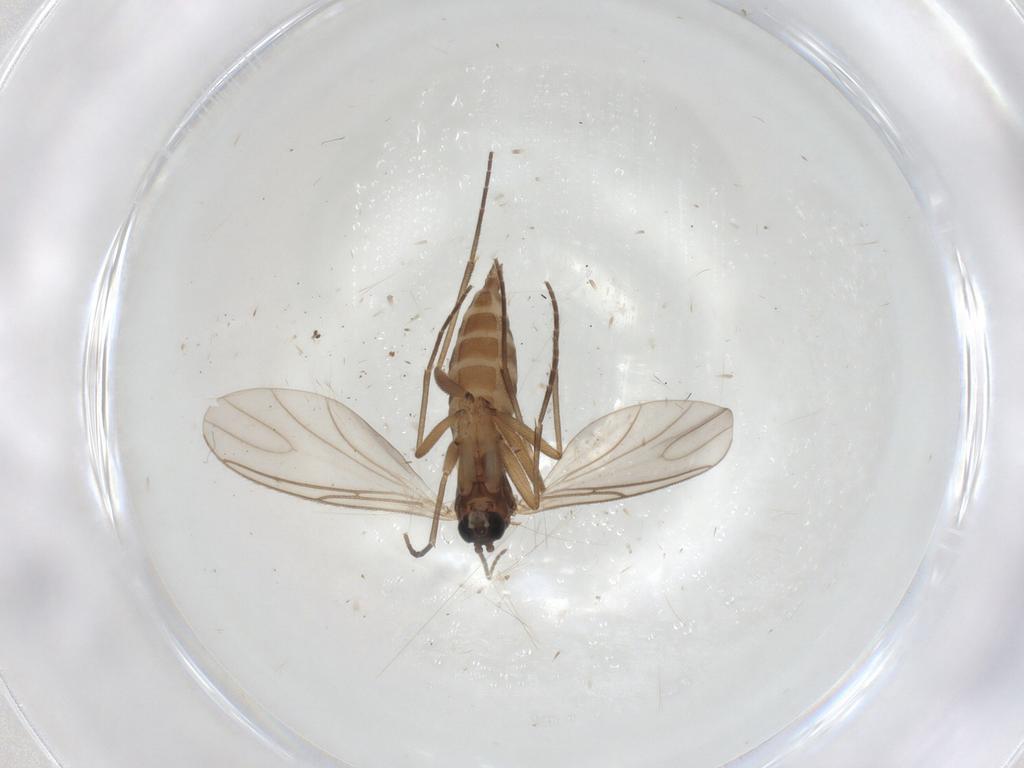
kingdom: Animalia
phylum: Arthropoda
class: Insecta
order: Diptera
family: Sciaridae
